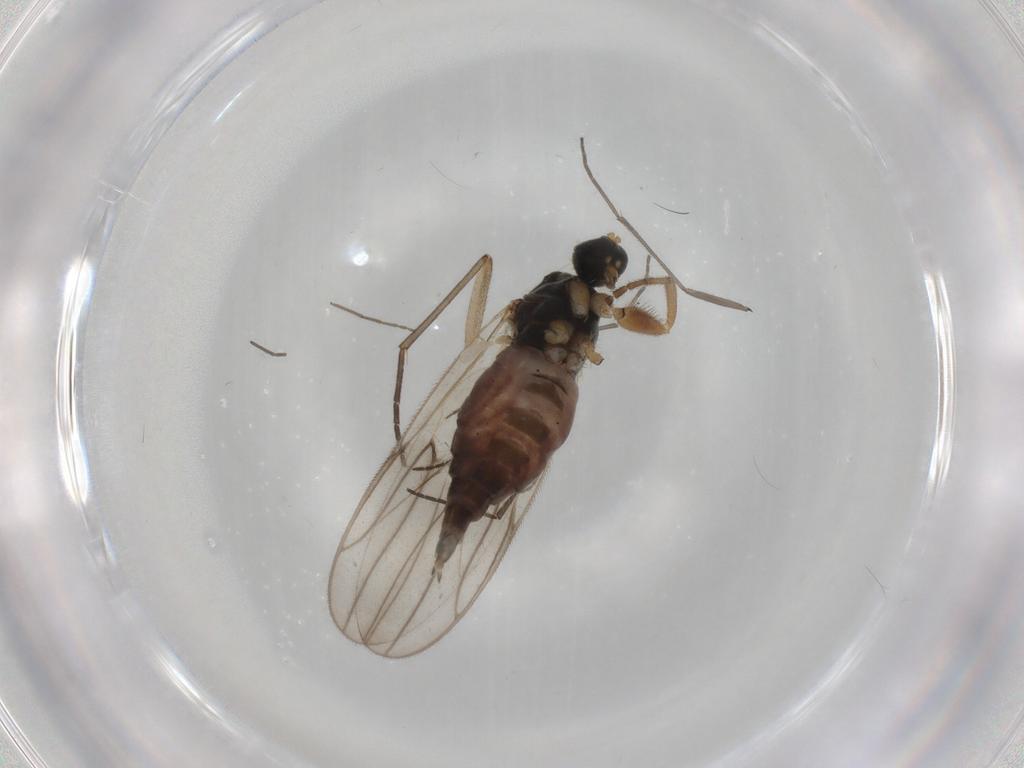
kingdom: Animalia
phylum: Arthropoda
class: Insecta
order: Diptera
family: Hybotidae
